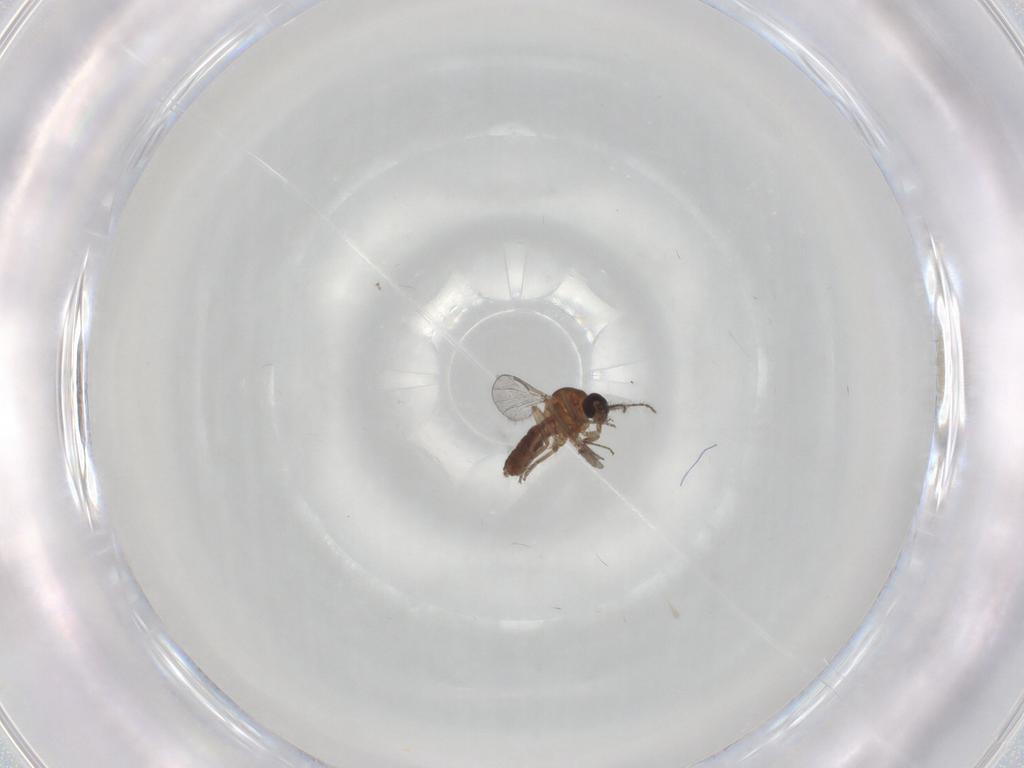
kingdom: Animalia
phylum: Arthropoda
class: Insecta
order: Diptera
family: Ceratopogonidae
